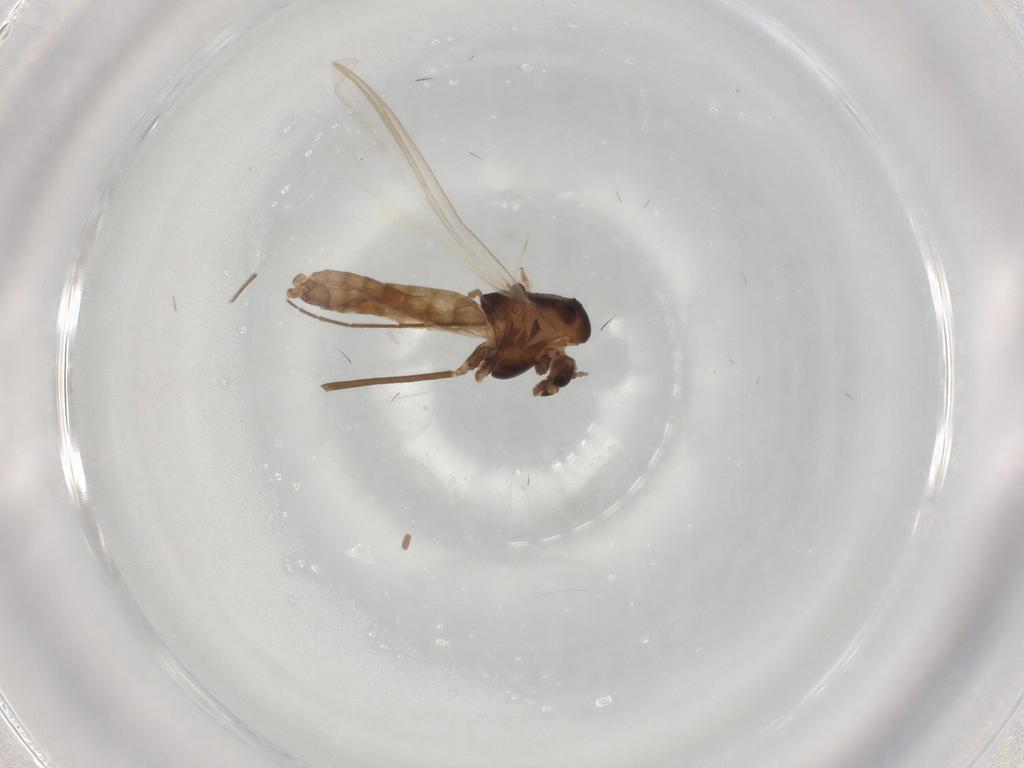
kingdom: Animalia
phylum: Arthropoda
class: Insecta
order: Diptera
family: Chironomidae
